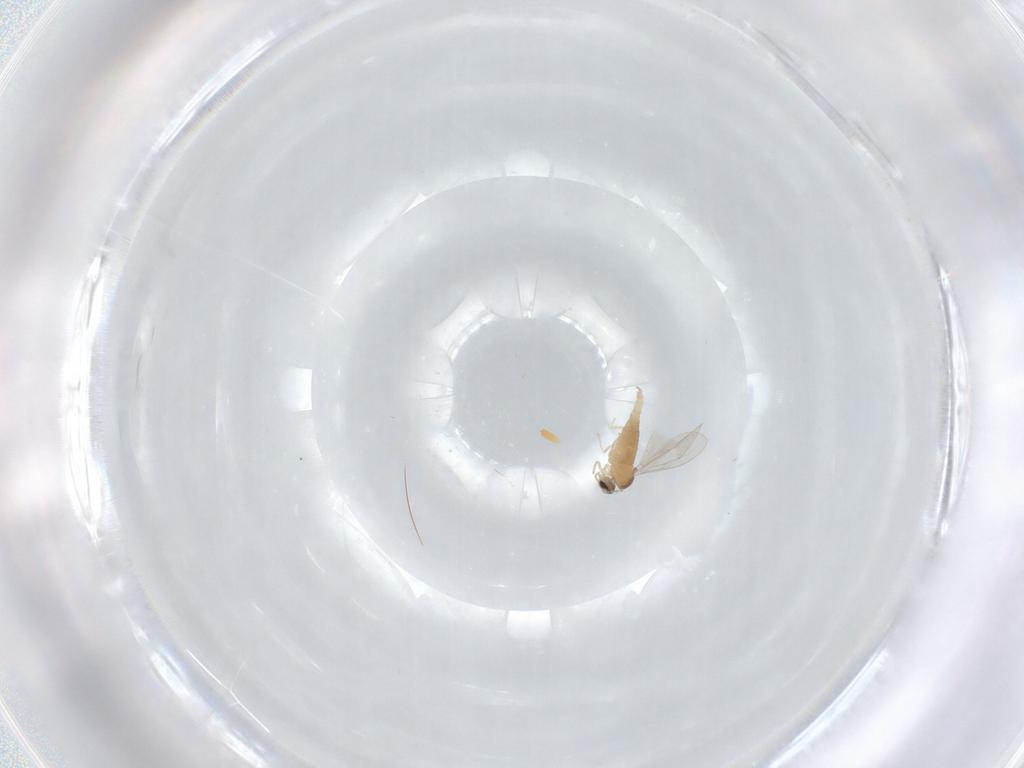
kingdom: Animalia
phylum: Arthropoda
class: Insecta
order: Diptera
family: Cecidomyiidae
